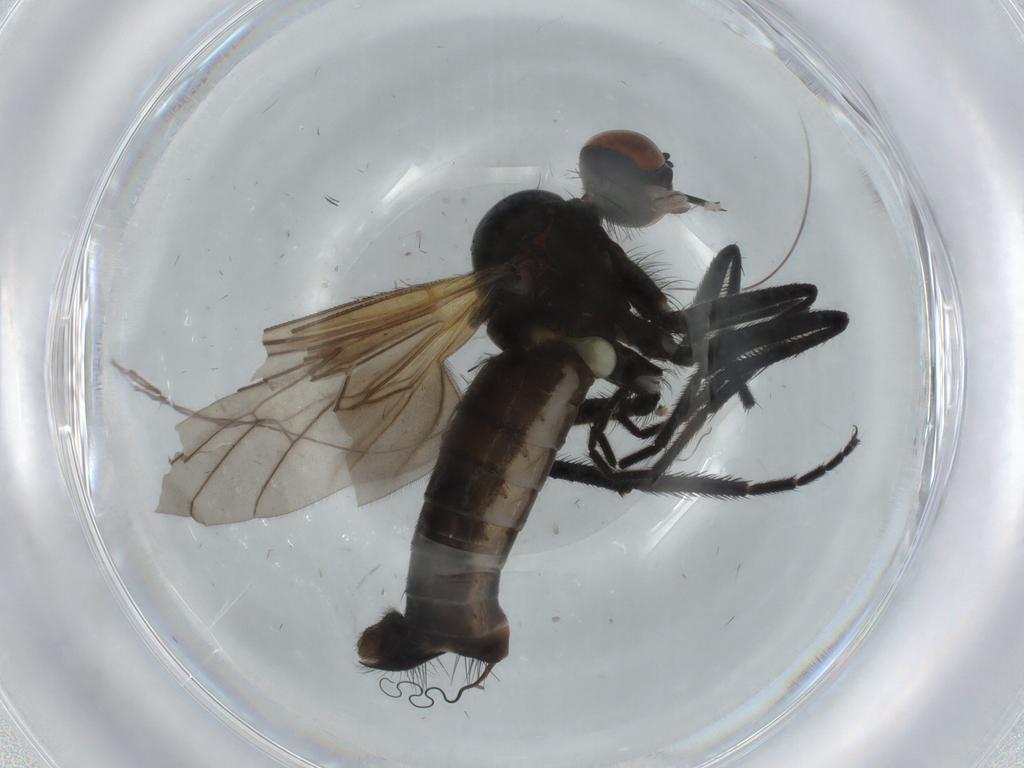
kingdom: Animalia
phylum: Arthropoda
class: Insecta
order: Diptera
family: Empididae
